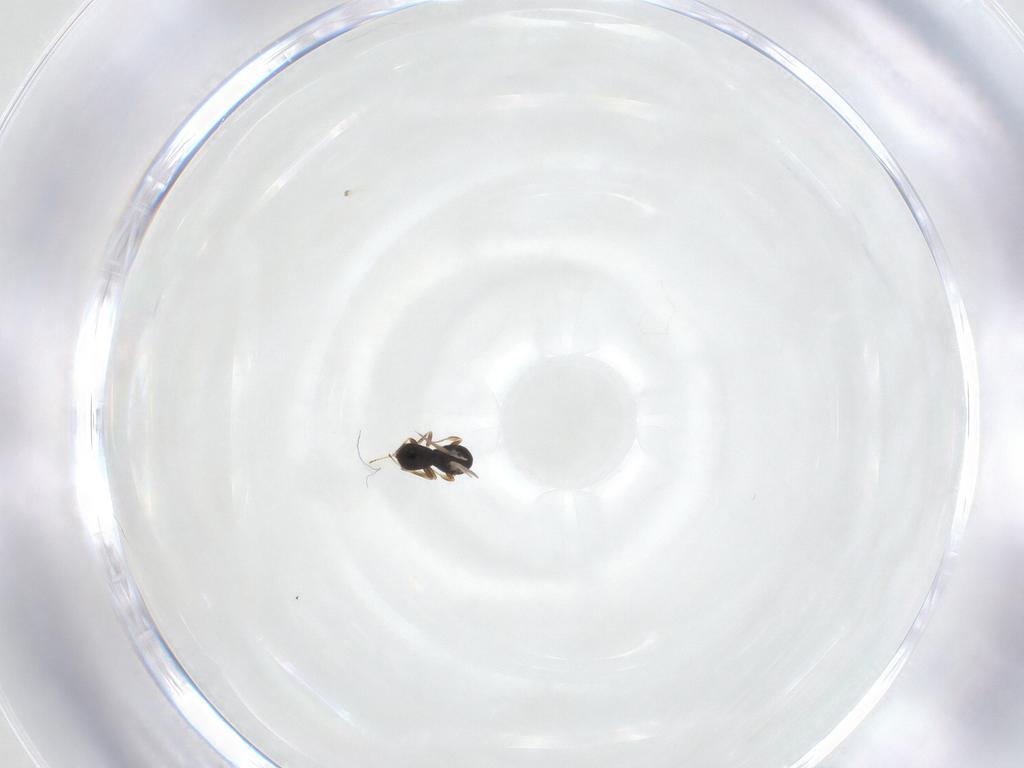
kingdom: Animalia
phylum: Arthropoda
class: Insecta
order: Hymenoptera
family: Scelionidae
